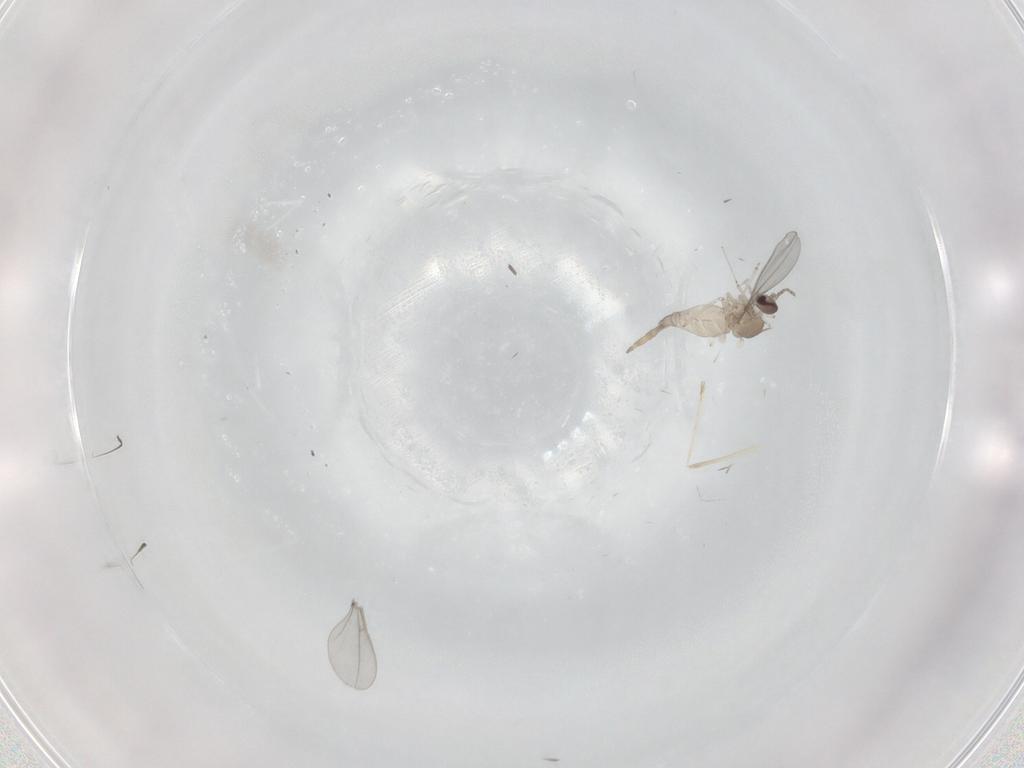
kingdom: Animalia
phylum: Arthropoda
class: Insecta
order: Diptera
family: Cecidomyiidae
